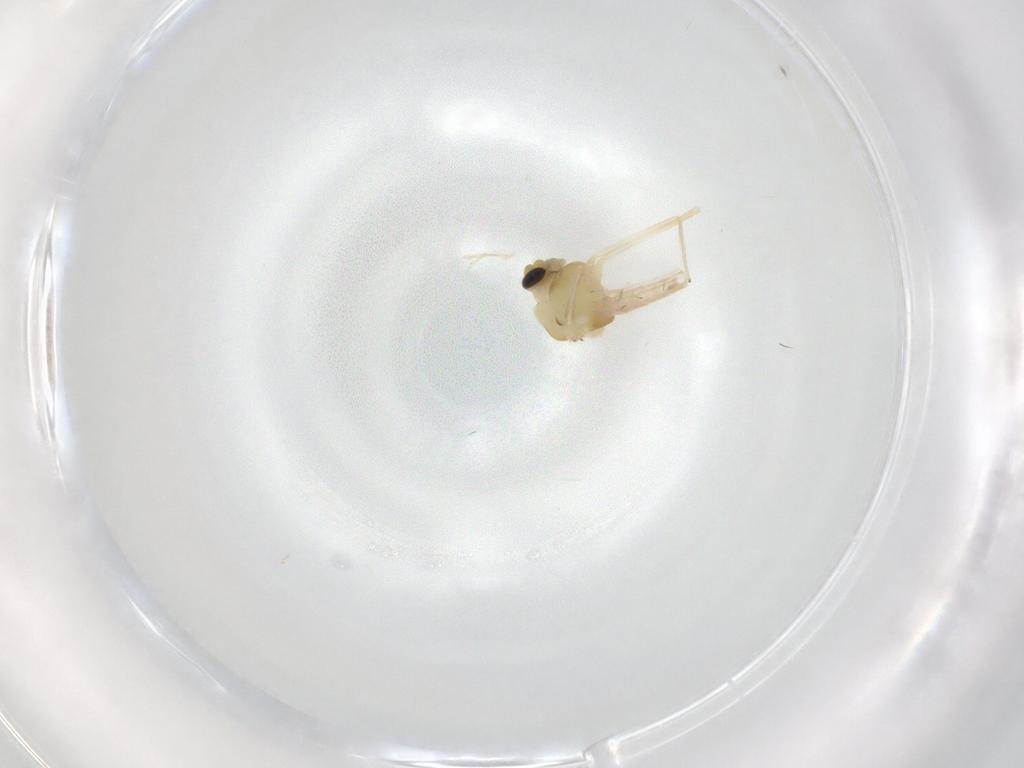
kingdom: Animalia
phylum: Arthropoda
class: Insecta
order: Diptera
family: Chironomidae
